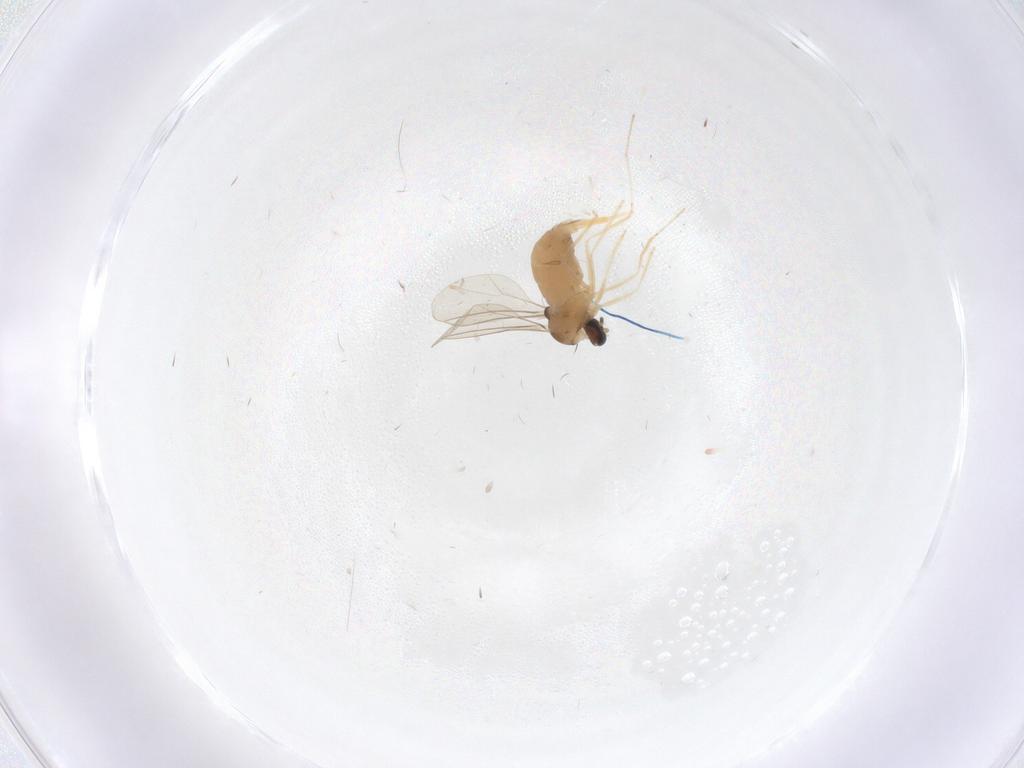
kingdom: Animalia
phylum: Arthropoda
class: Insecta
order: Diptera
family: Cecidomyiidae
